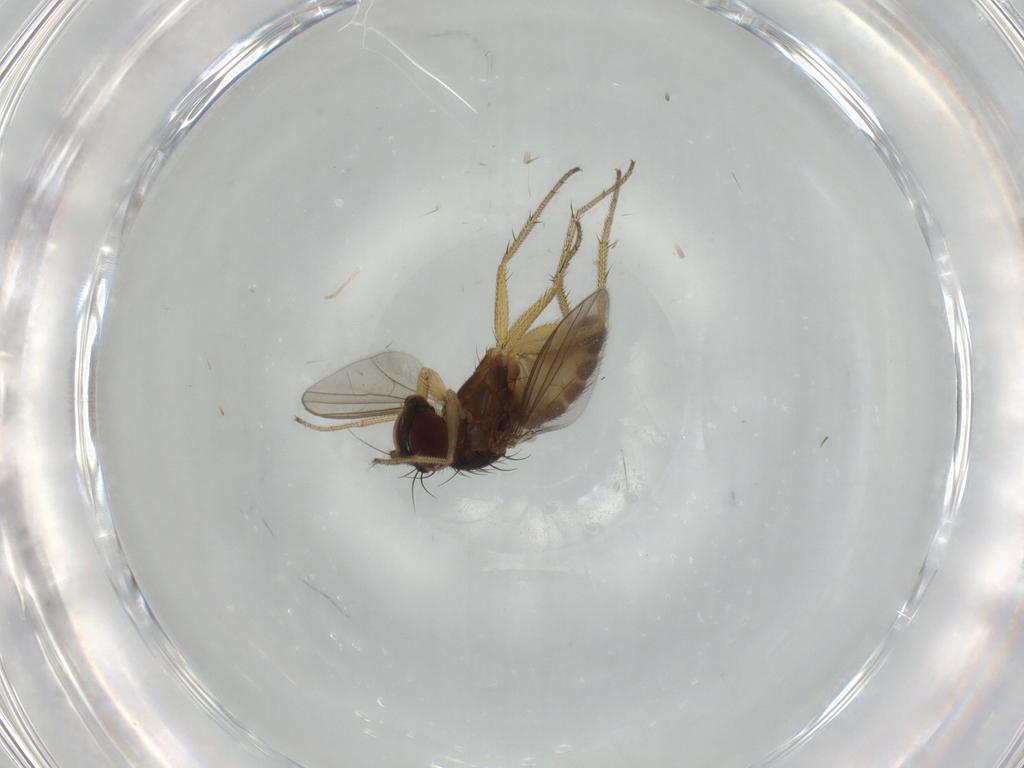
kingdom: Animalia
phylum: Arthropoda
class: Insecta
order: Diptera
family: Dolichopodidae
